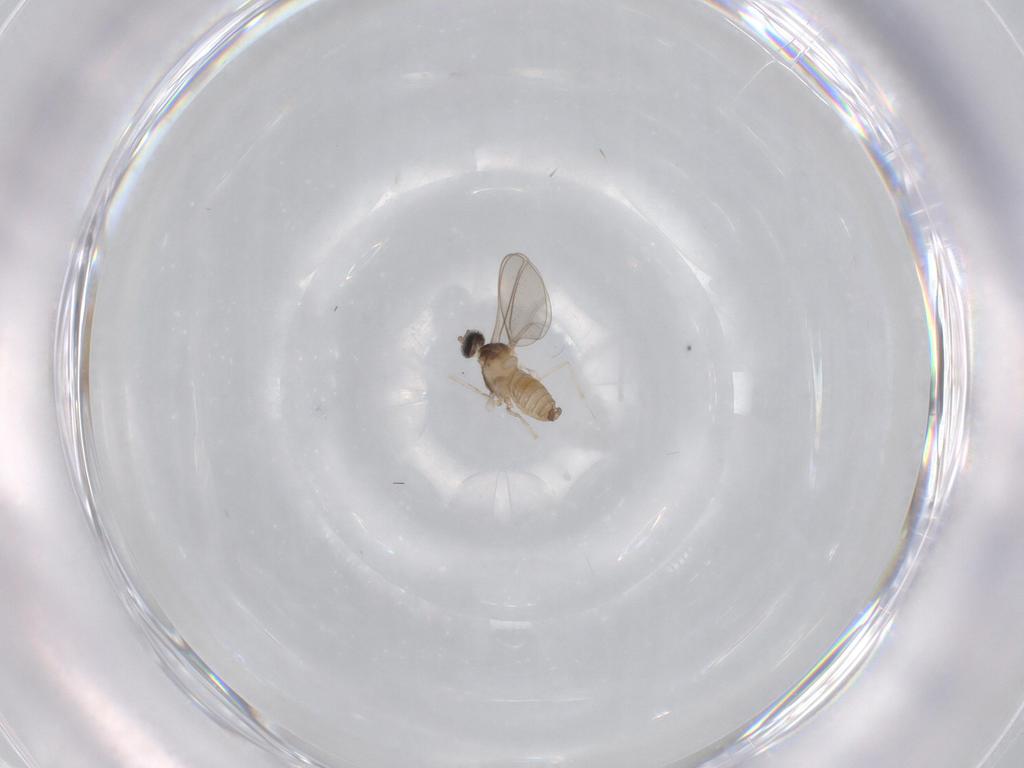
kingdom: Animalia
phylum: Arthropoda
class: Insecta
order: Diptera
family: Cecidomyiidae
